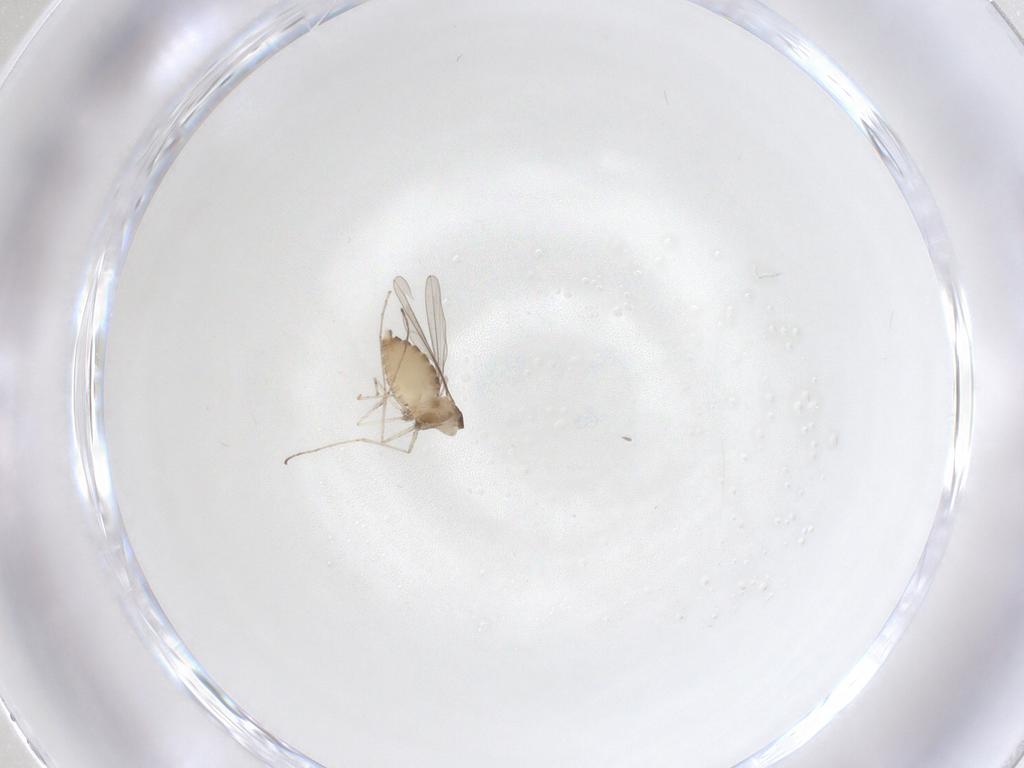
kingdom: Animalia
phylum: Arthropoda
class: Insecta
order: Diptera
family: Cecidomyiidae
